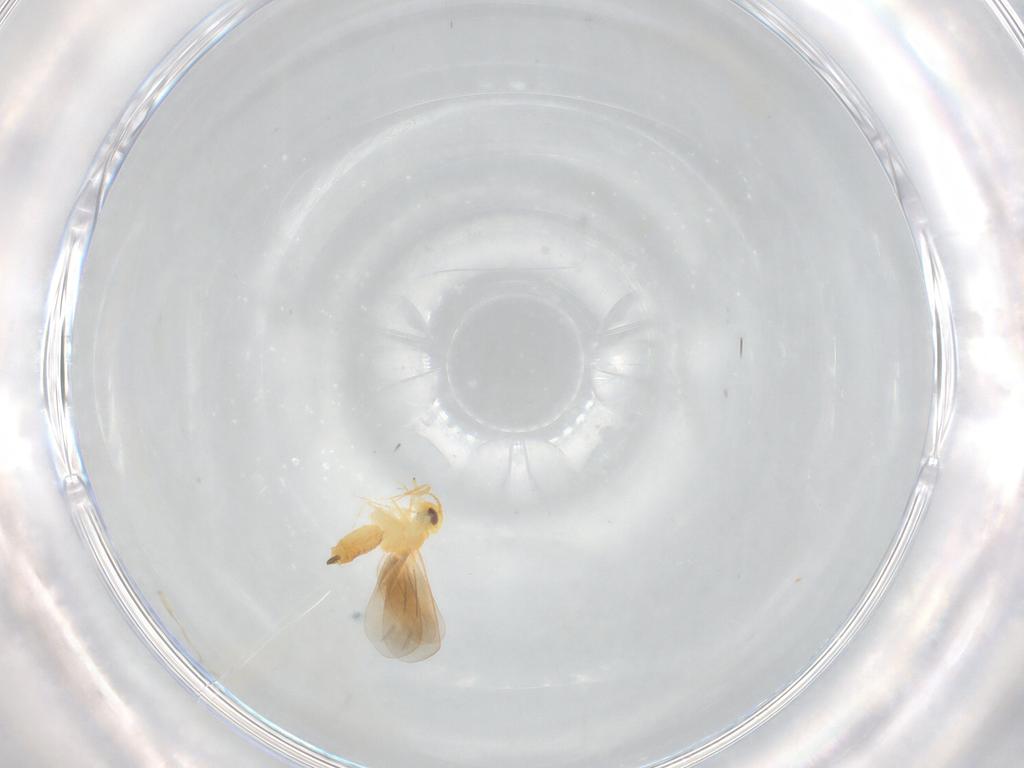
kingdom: Animalia
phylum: Arthropoda
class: Insecta
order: Hemiptera
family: Aleyrodidae
